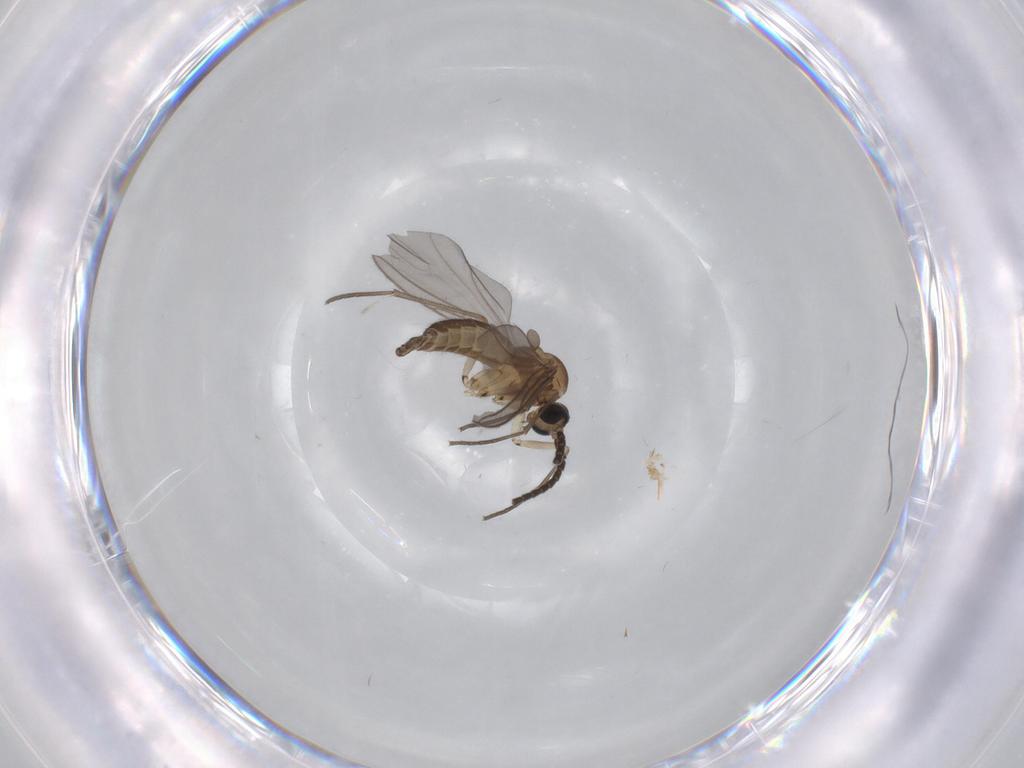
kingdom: Animalia
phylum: Arthropoda
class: Insecta
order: Diptera
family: Sciaridae
